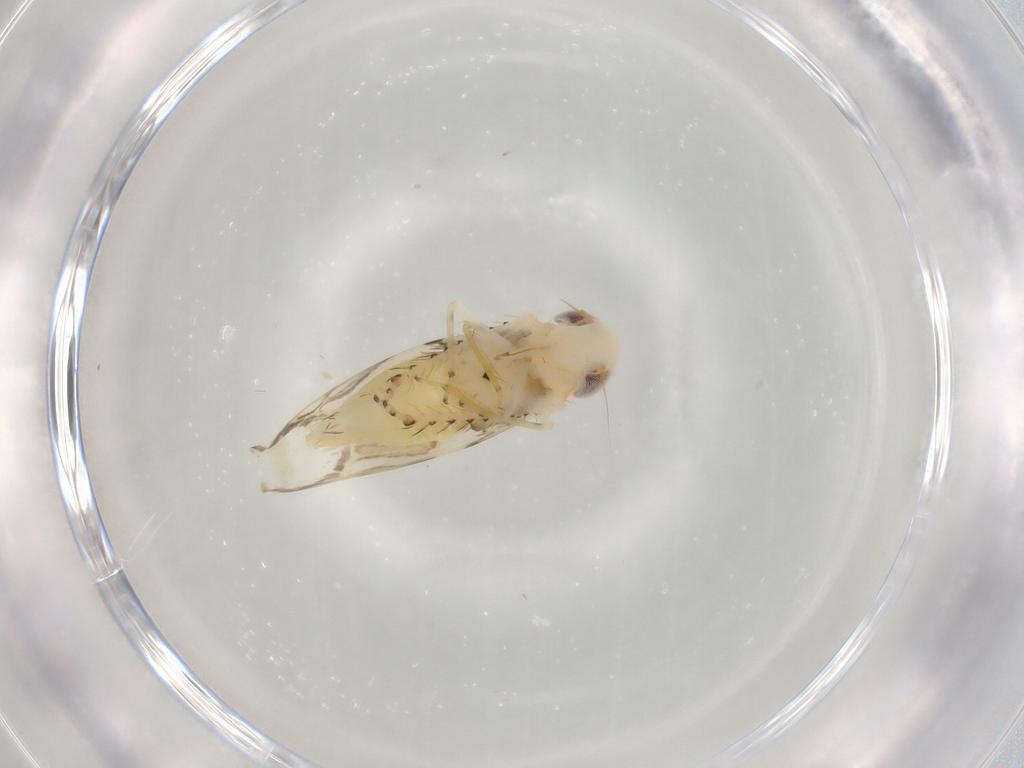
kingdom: Animalia
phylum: Arthropoda
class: Insecta
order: Hemiptera
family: Cicadellidae
